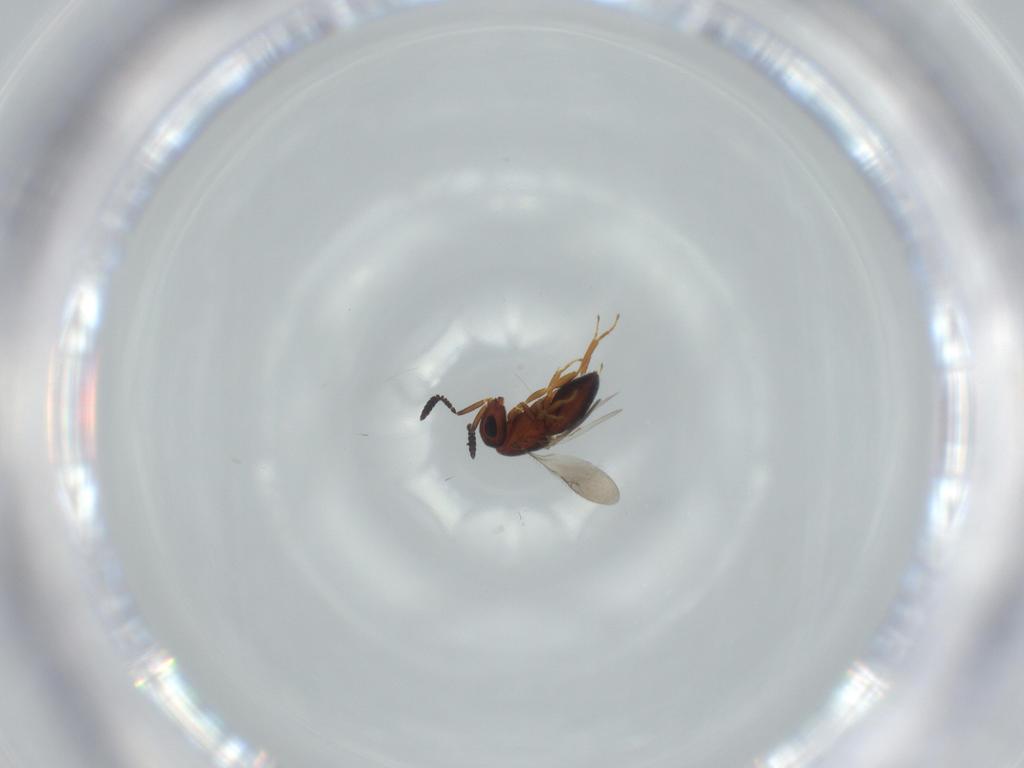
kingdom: Animalia
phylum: Arthropoda
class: Insecta
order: Hymenoptera
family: Scelionidae
